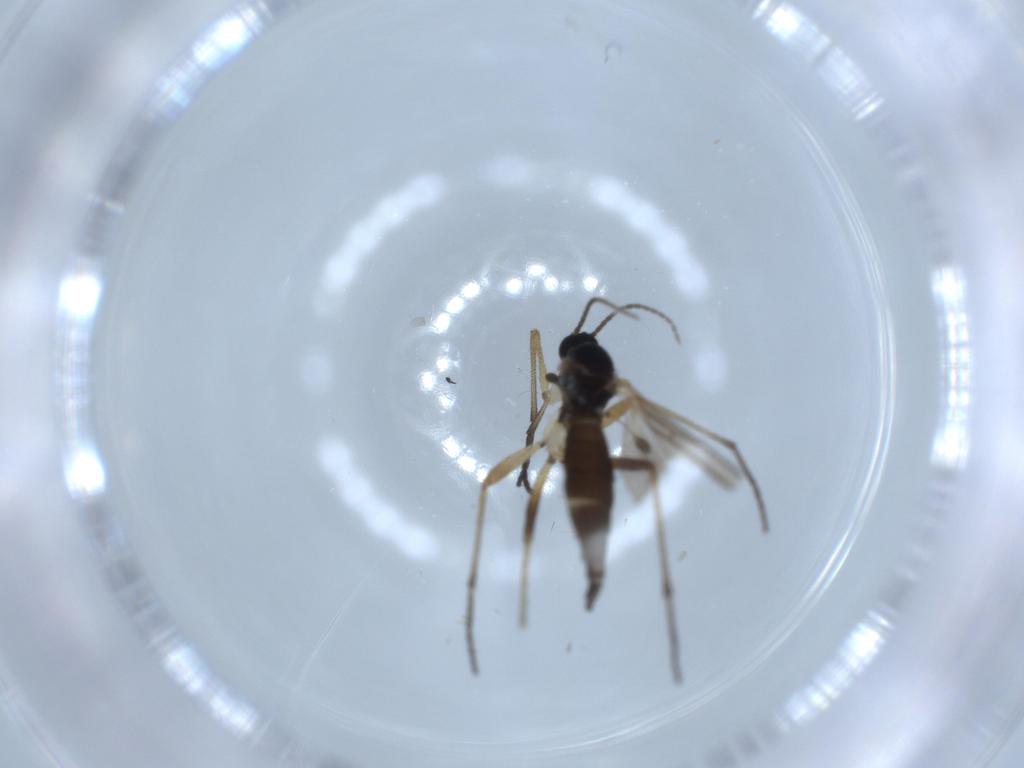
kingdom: Animalia
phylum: Arthropoda
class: Insecta
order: Diptera
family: Sciaridae
